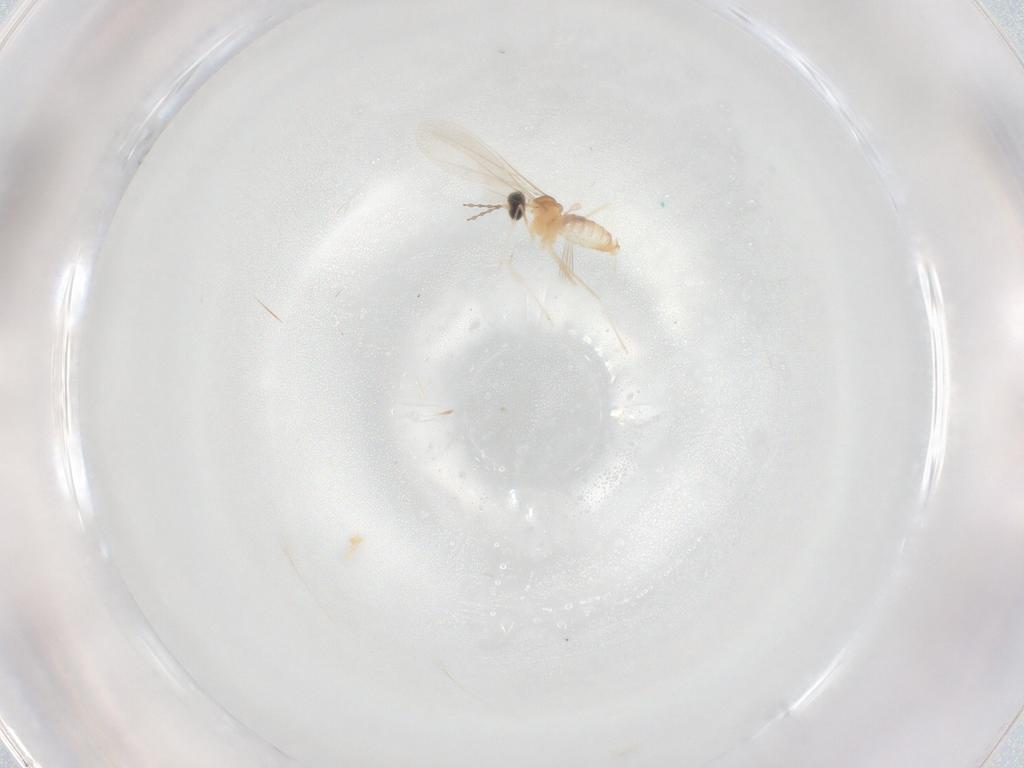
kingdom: Animalia
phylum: Arthropoda
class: Insecta
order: Diptera
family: Cecidomyiidae
